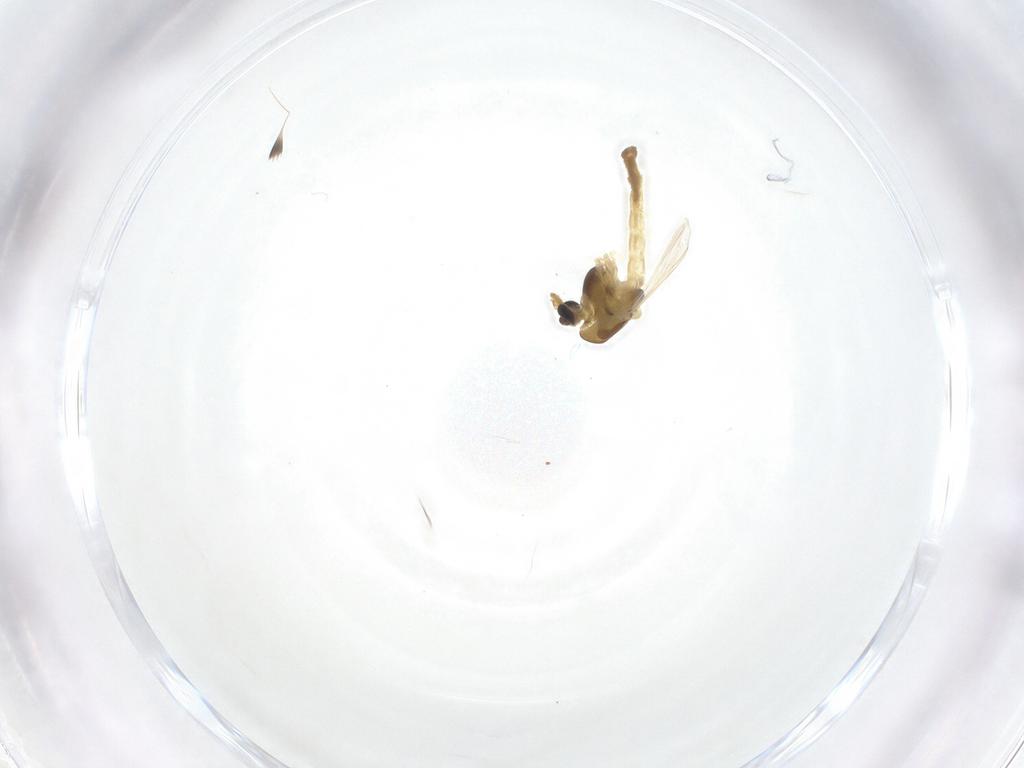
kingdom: Animalia
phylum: Arthropoda
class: Insecta
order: Diptera
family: Chironomidae
